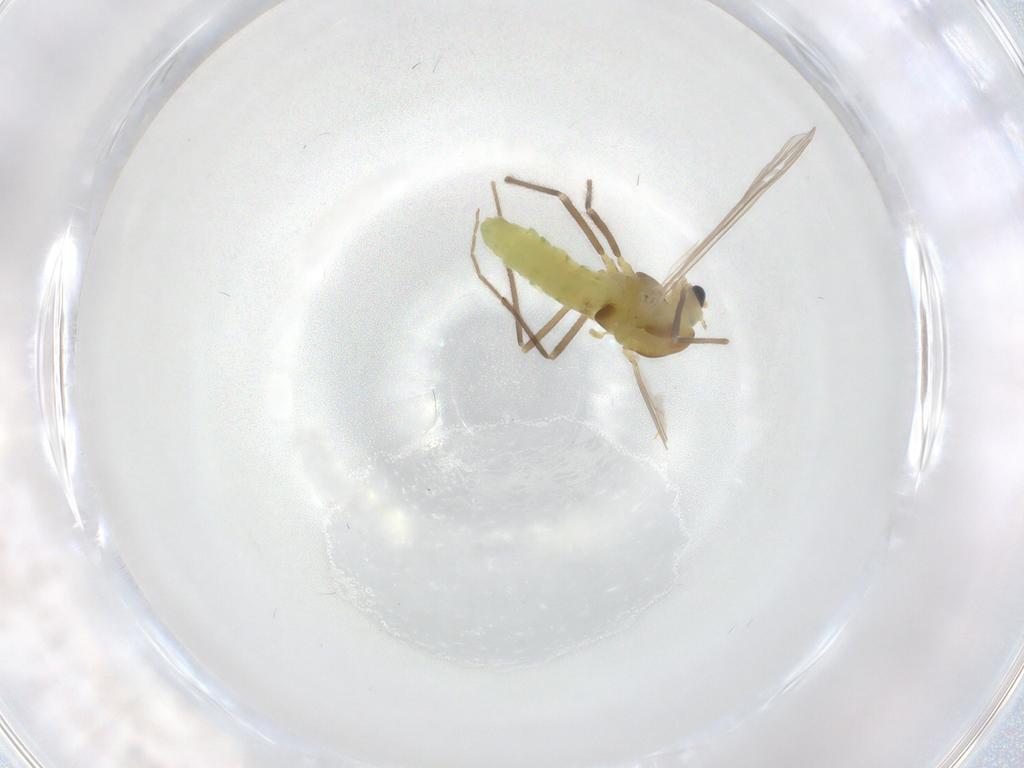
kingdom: Animalia
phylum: Arthropoda
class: Insecta
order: Diptera
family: Chironomidae
